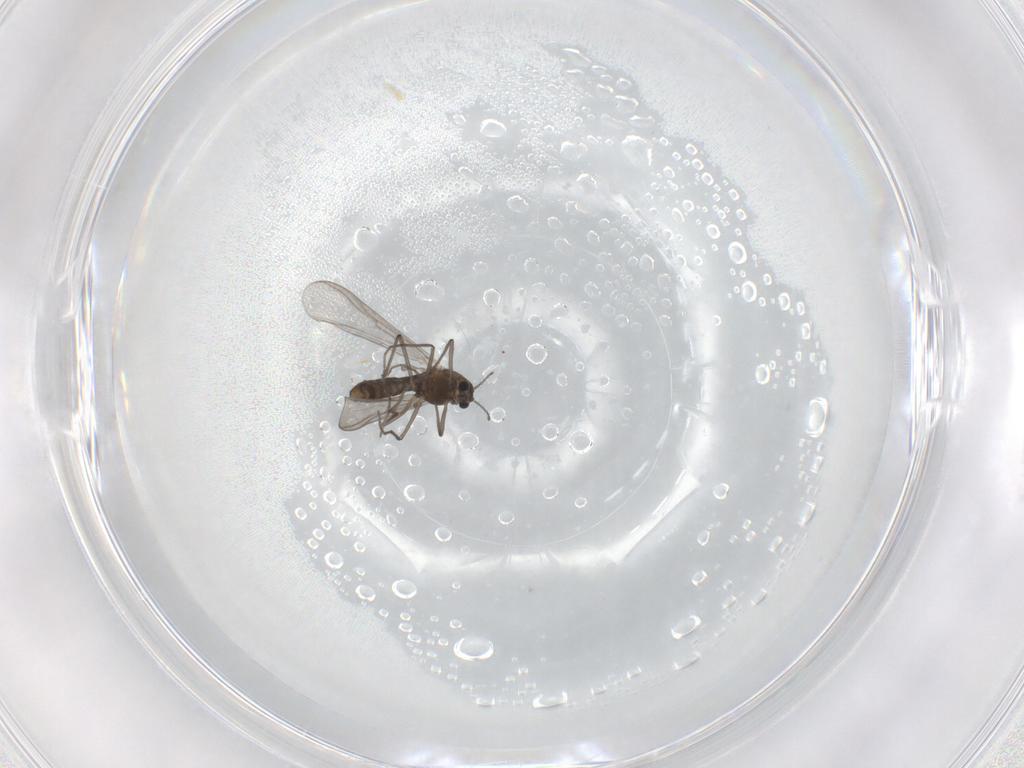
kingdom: Animalia
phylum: Arthropoda
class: Insecta
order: Diptera
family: Chironomidae
